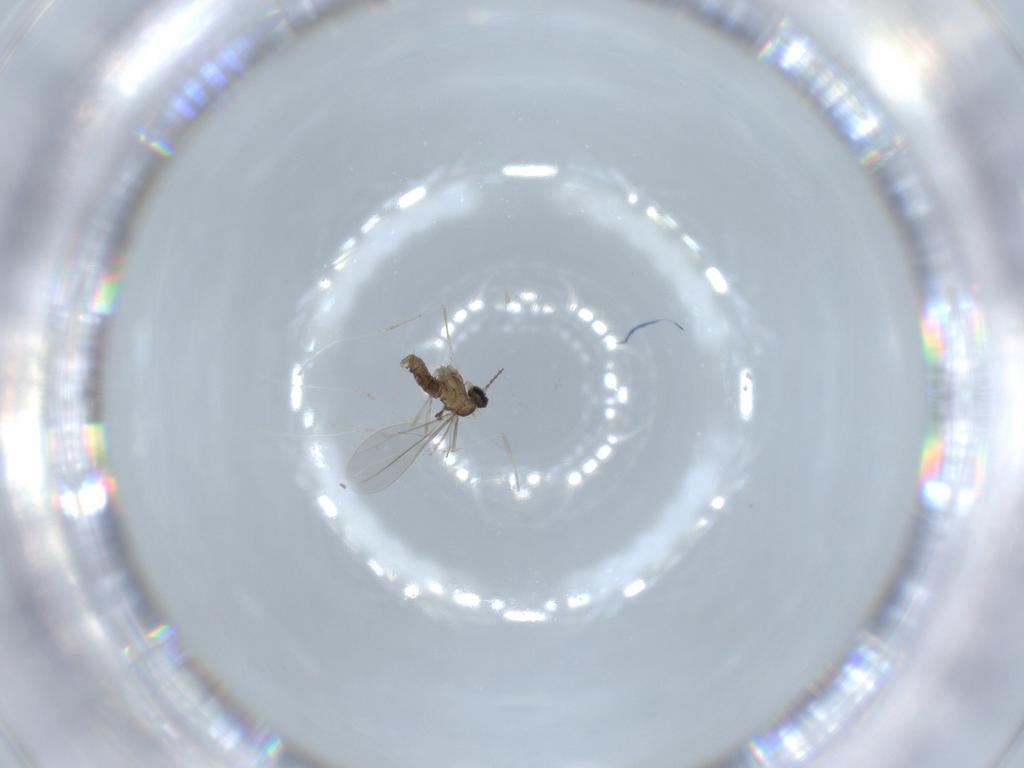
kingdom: Animalia
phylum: Arthropoda
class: Insecta
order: Diptera
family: Cecidomyiidae
